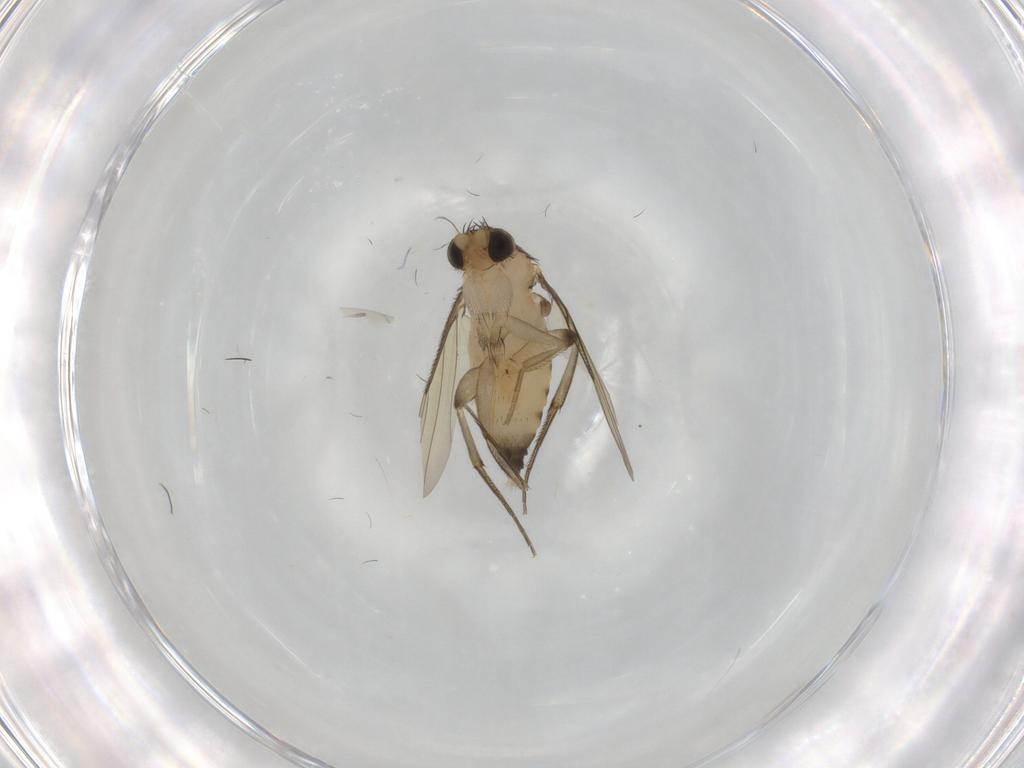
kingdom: Animalia
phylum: Arthropoda
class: Insecta
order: Diptera
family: Phoridae
